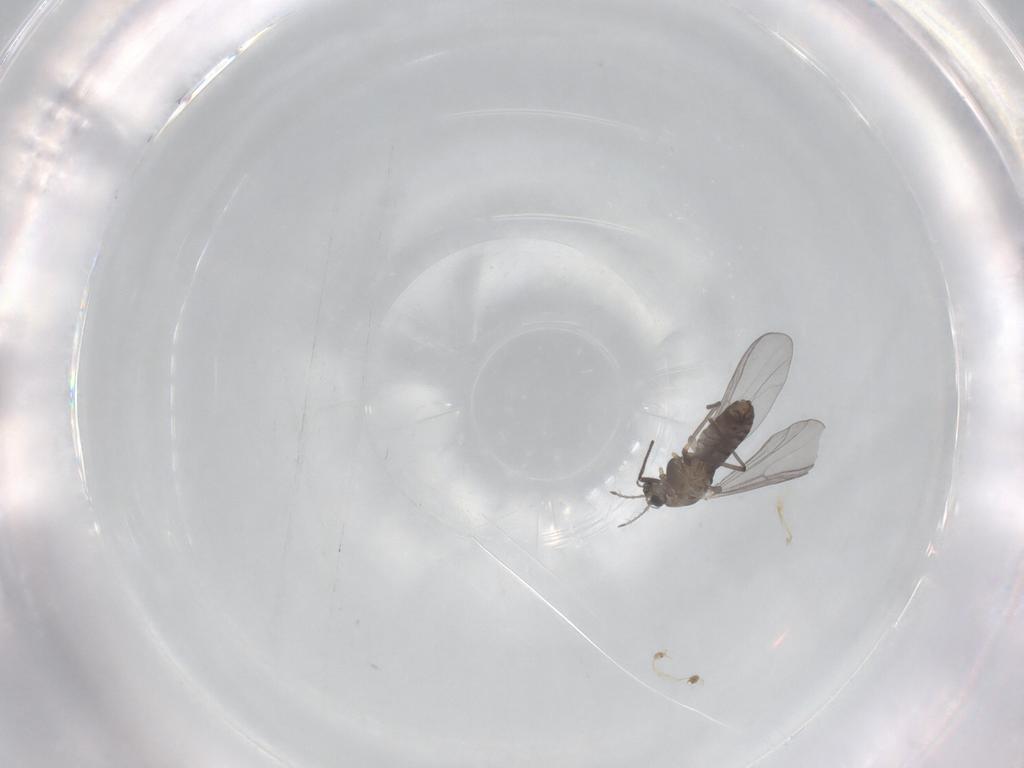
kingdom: Animalia
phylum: Arthropoda
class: Insecta
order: Diptera
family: Chironomidae
